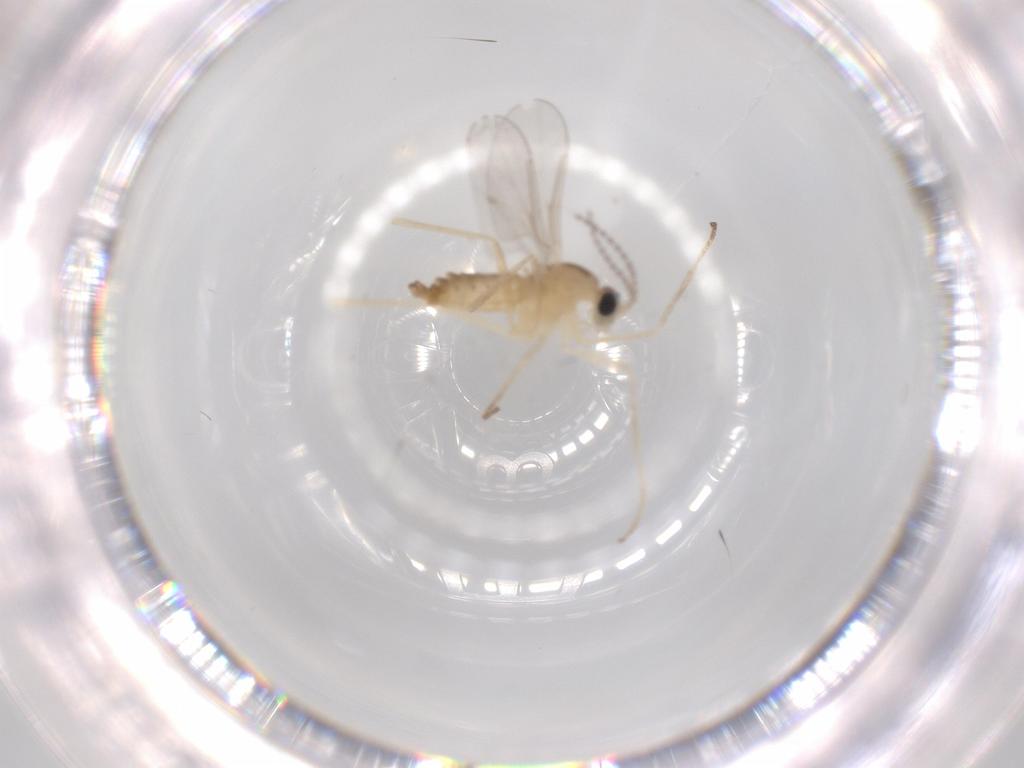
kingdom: Animalia
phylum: Arthropoda
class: Insecta
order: Diptera
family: Cecidomyiidae
